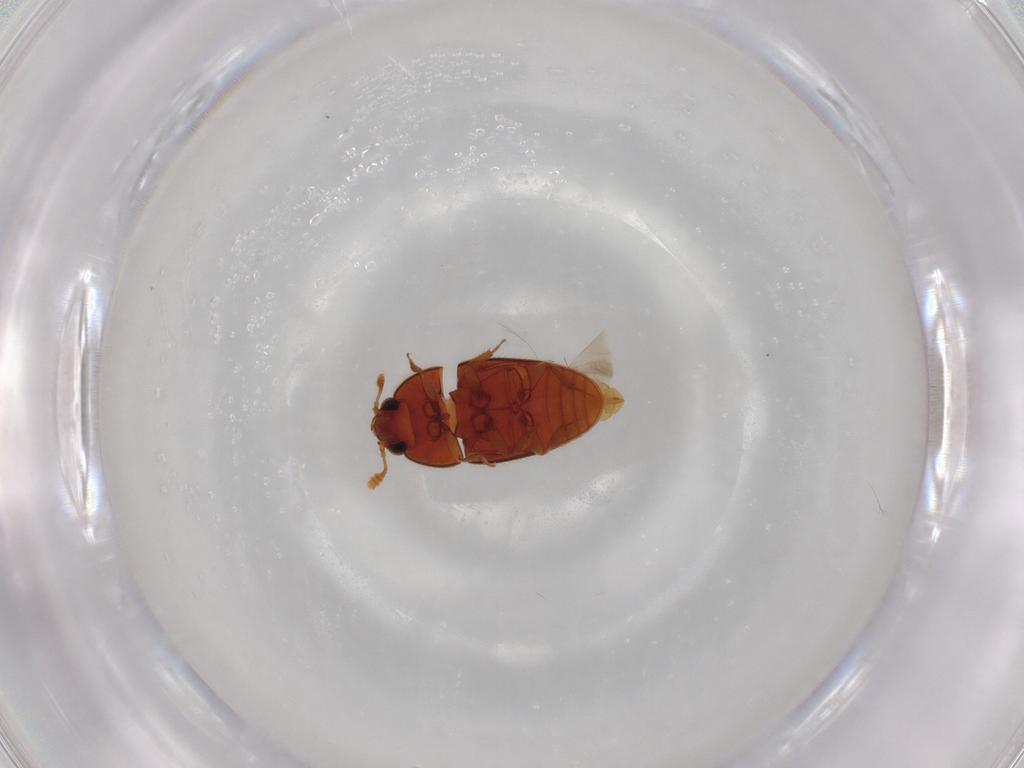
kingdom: Animalia
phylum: Arthropoda
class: Insecta
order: Coleoptera
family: Biphyllidae
